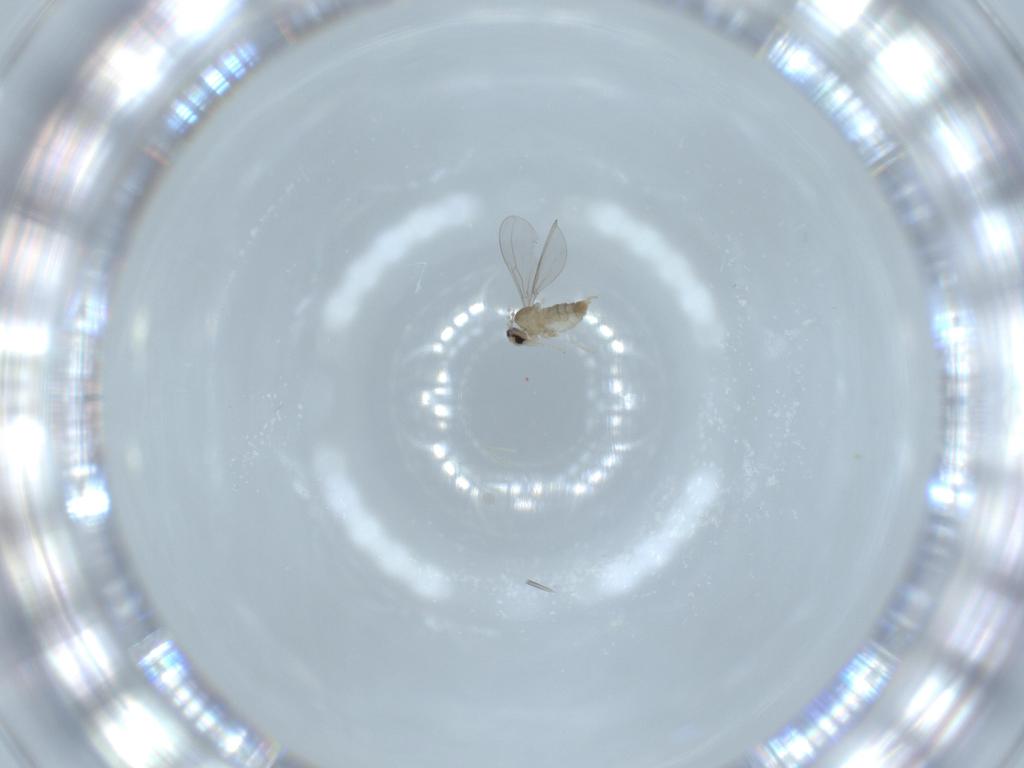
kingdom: Animalia
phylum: Arthropoda
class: Insecta
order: Diptera
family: Cecidomyiidae
